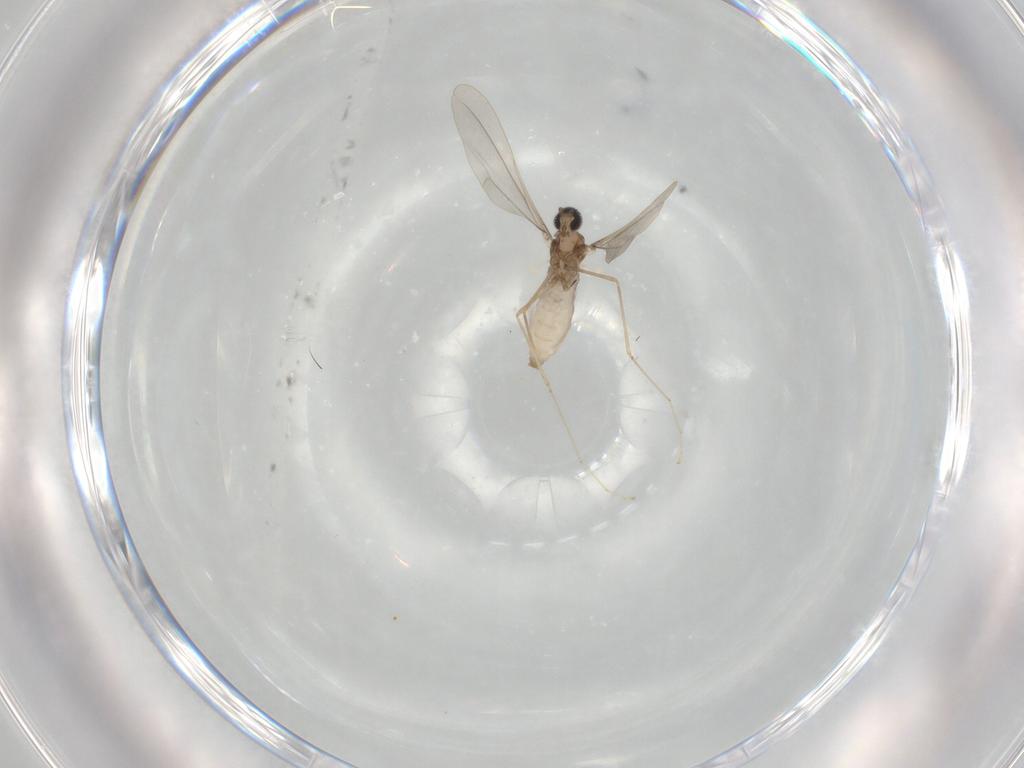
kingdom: Animalia
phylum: Arthropoda
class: Insecta
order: Diptera
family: Cecidomyiidae
